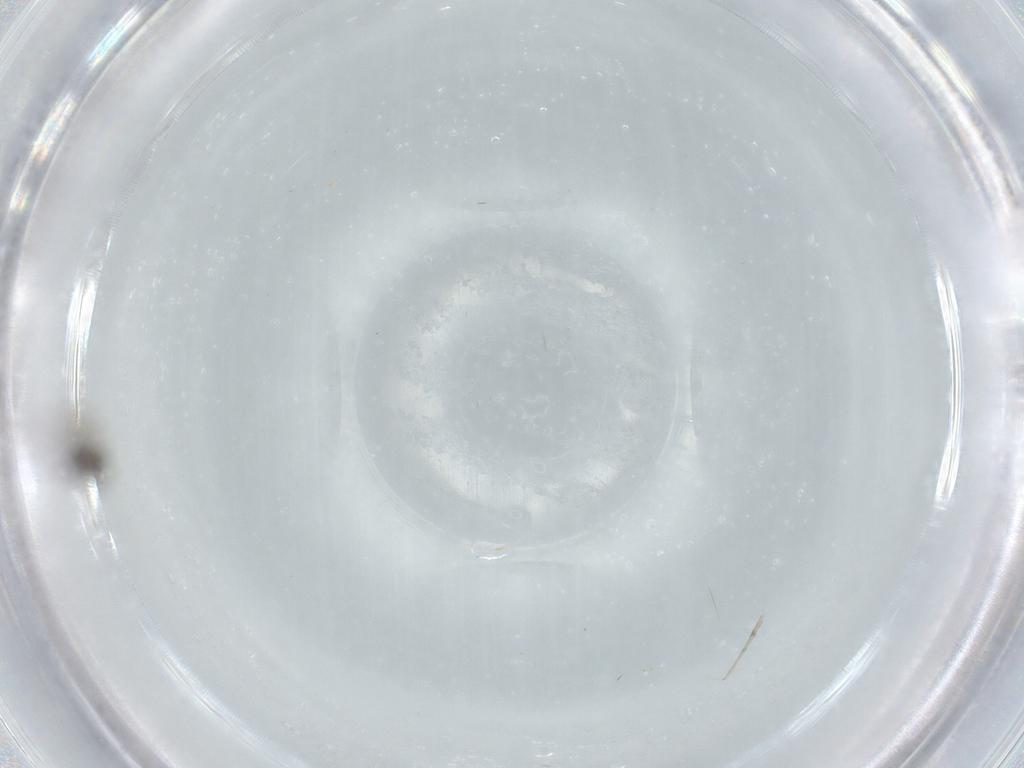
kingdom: Animalia
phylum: Arthropoda
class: Insecta
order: Diptera
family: Phoridae
